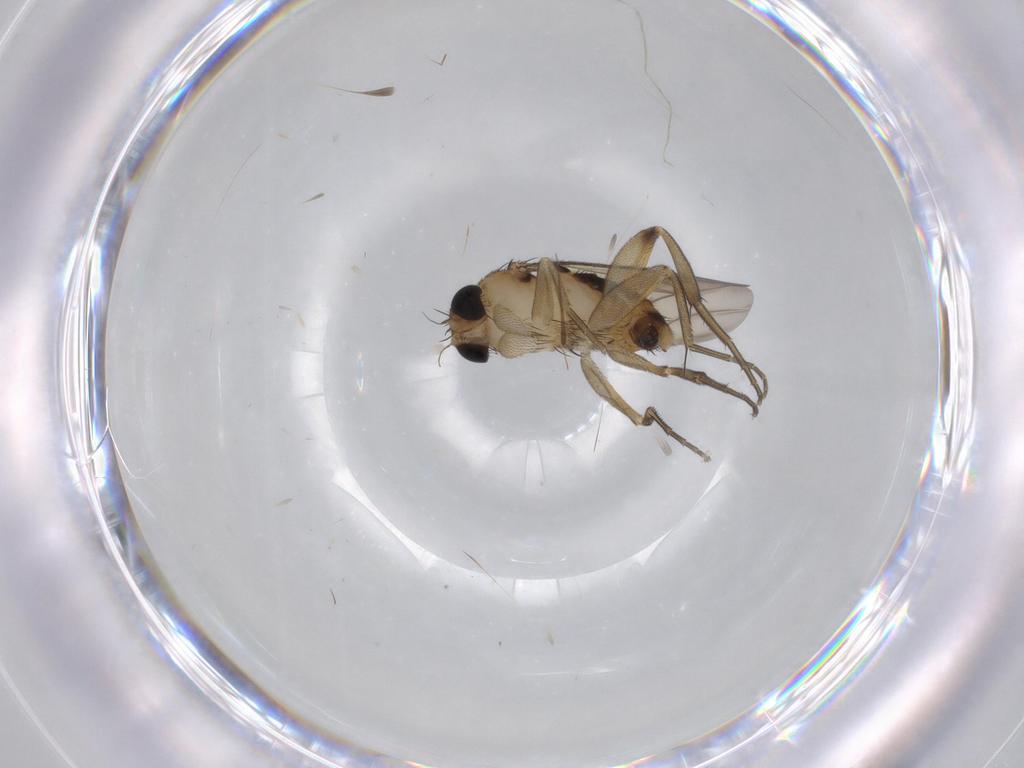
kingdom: Animalia
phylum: Arthropoda
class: Insecta
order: Diptera
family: Phoridae
